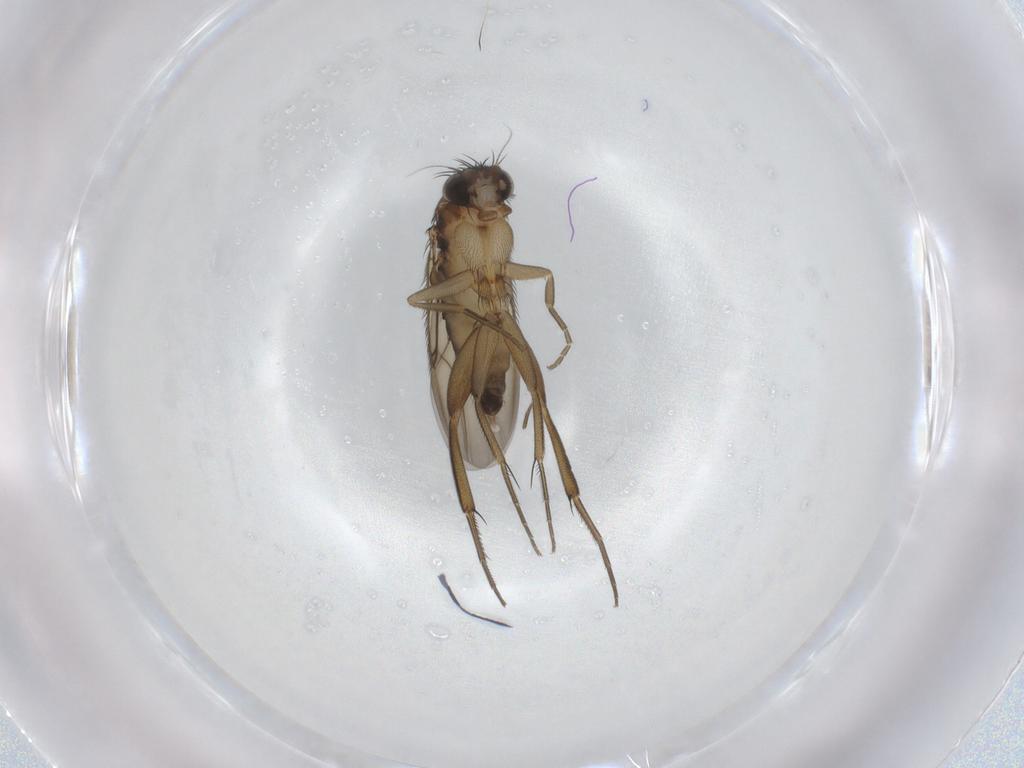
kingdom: Animalia
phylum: Arthropoda
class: Insecta
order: Diptera
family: Phoridae
